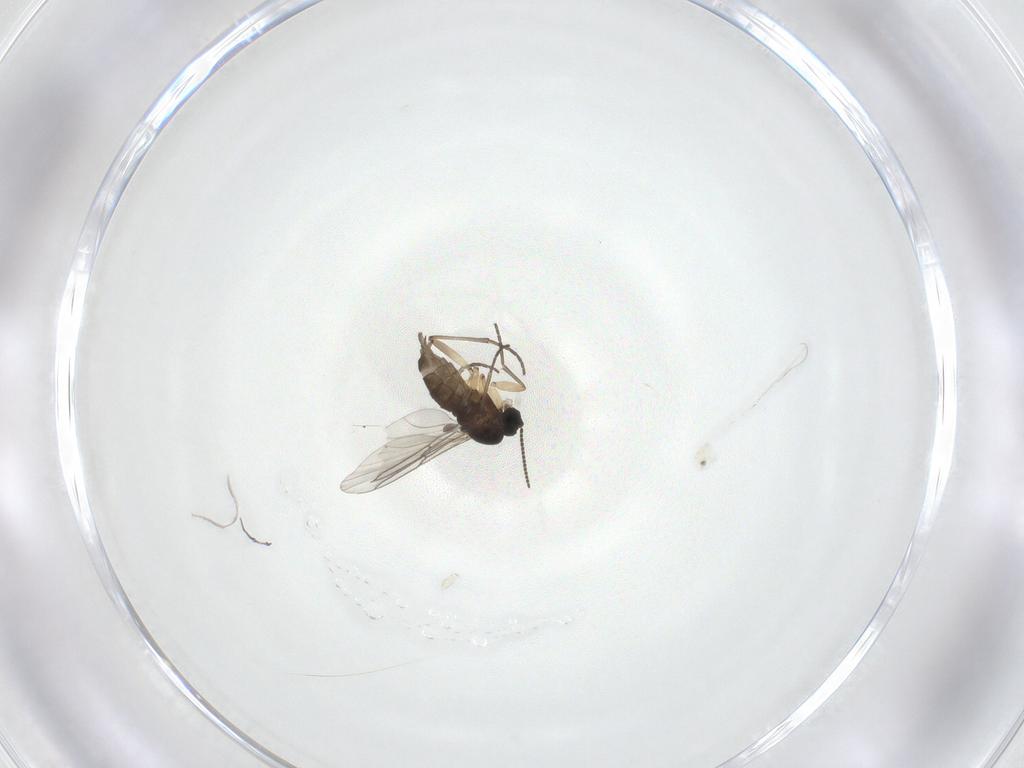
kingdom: Animalia
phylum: Arthropoda
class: Insecta
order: Diptera
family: Sciaridae
